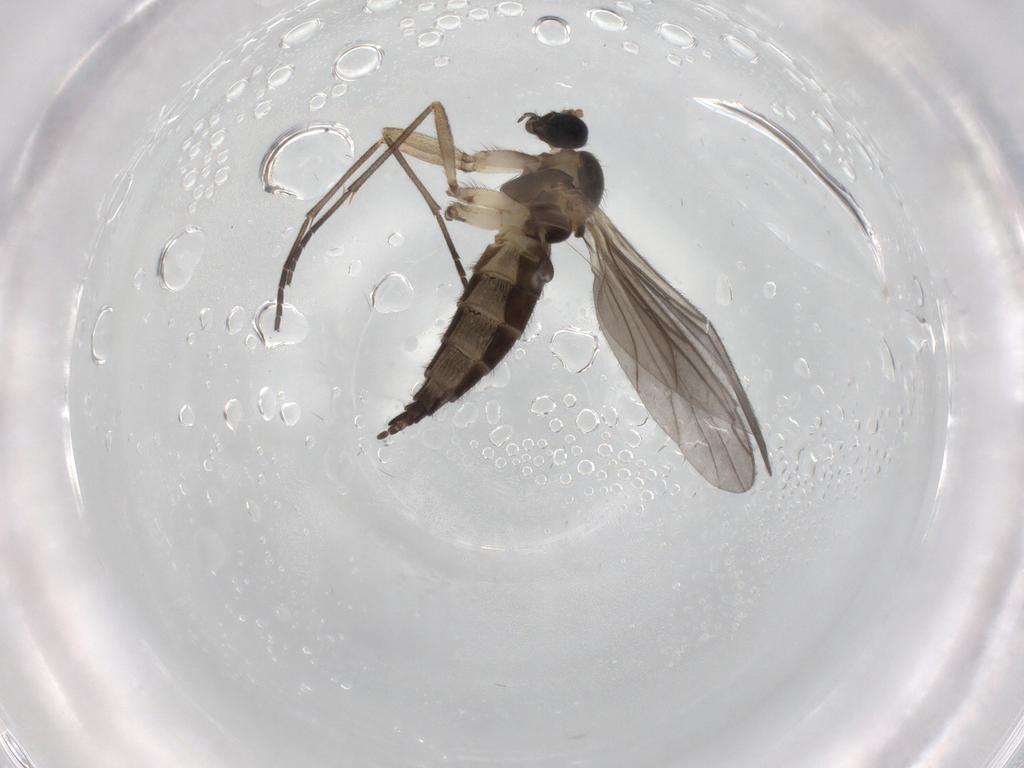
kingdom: Animalia
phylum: Arthropoda
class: Insecta
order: Diptera
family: Sciaridae
